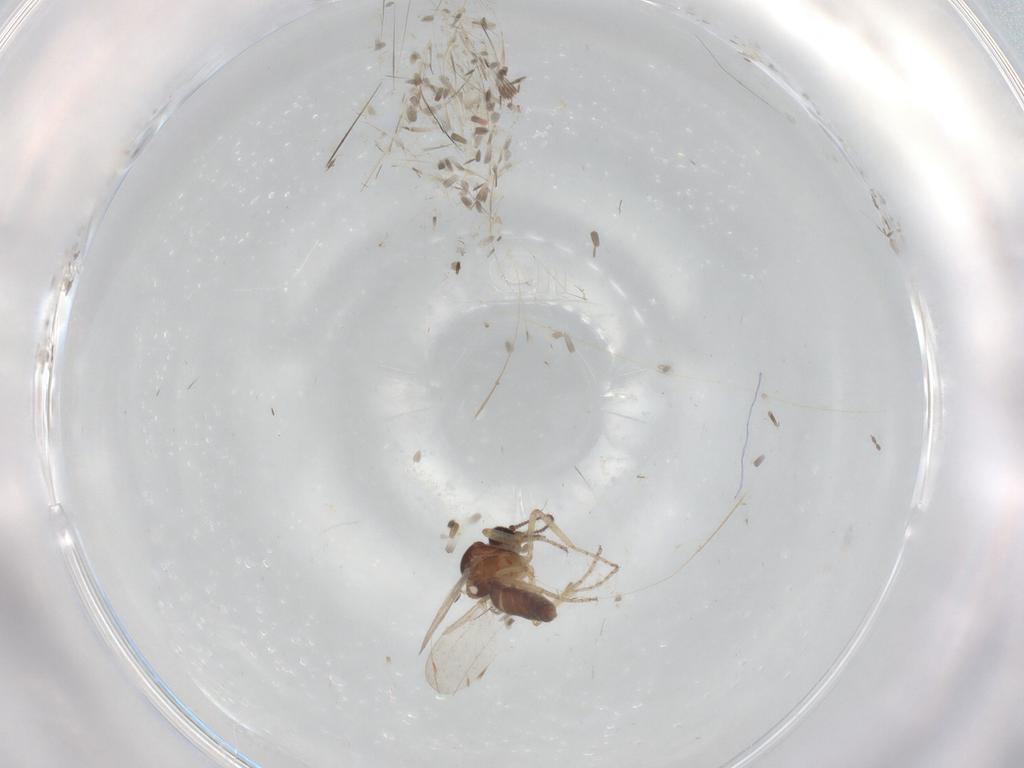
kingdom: Animalia
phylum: Arthropoda
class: Insecta
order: Diptera
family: Ceratopogonidae
